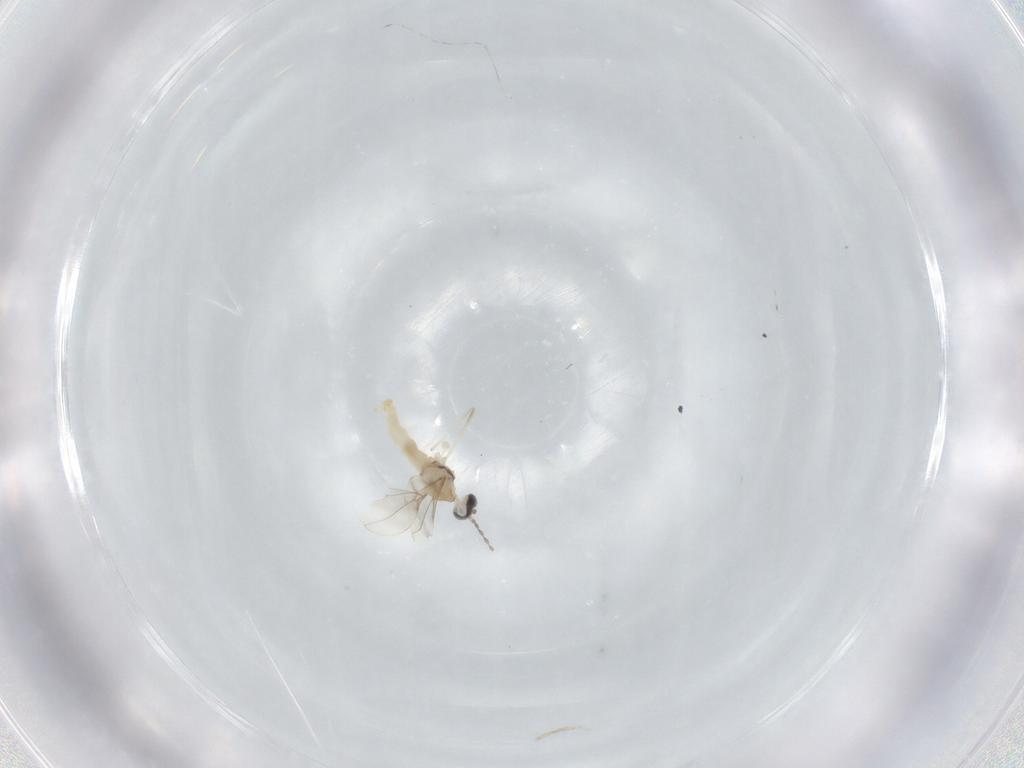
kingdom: Animalia
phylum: Arthropoda
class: Insecta
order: Diptera
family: Cecidomyiidae
